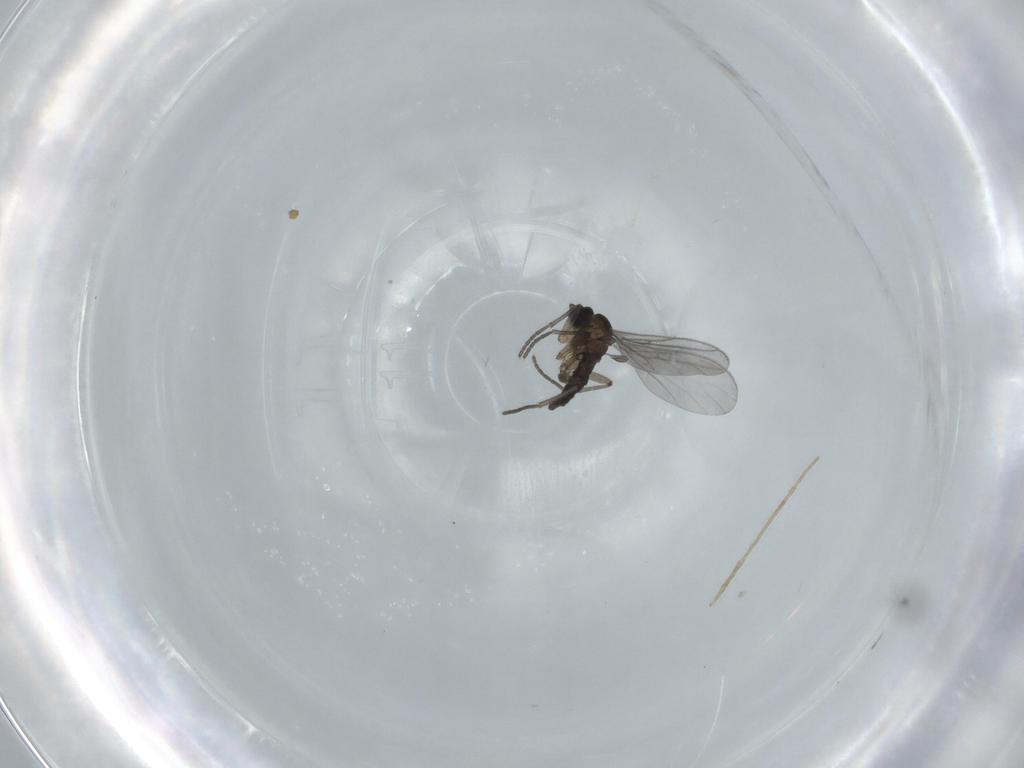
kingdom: Animalia
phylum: Arthropoda
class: Insecta
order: Diptera
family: Chironomidae
